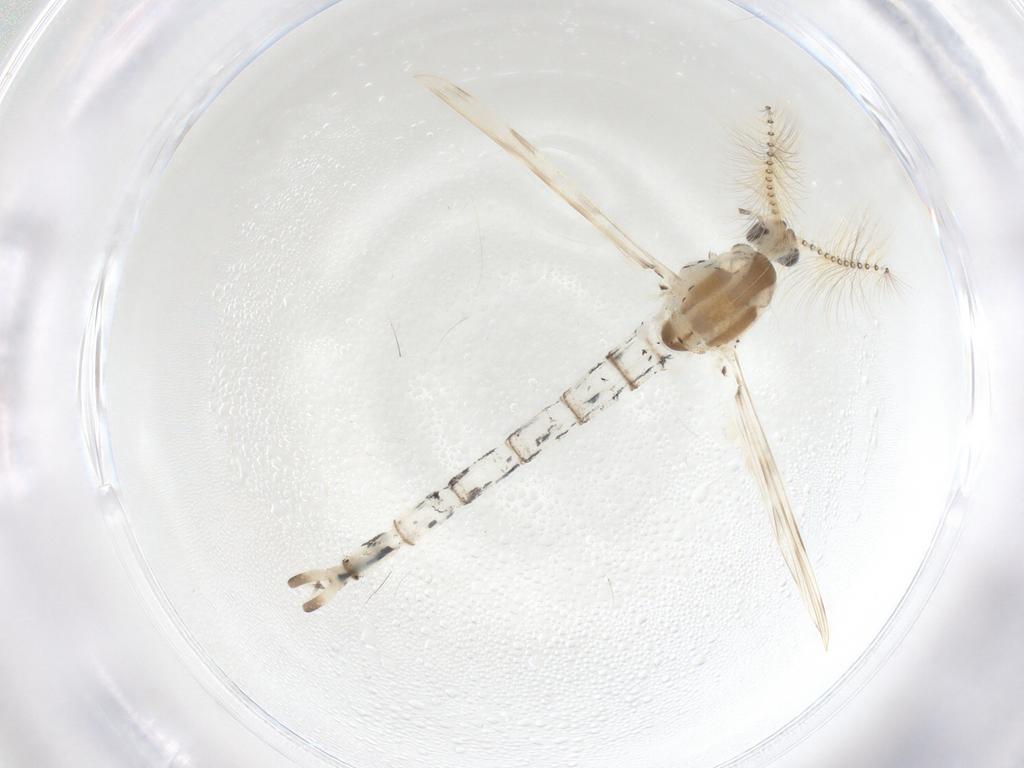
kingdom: Animalia
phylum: Arthropoda
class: Insecta
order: Diptera
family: Chaoboridae
